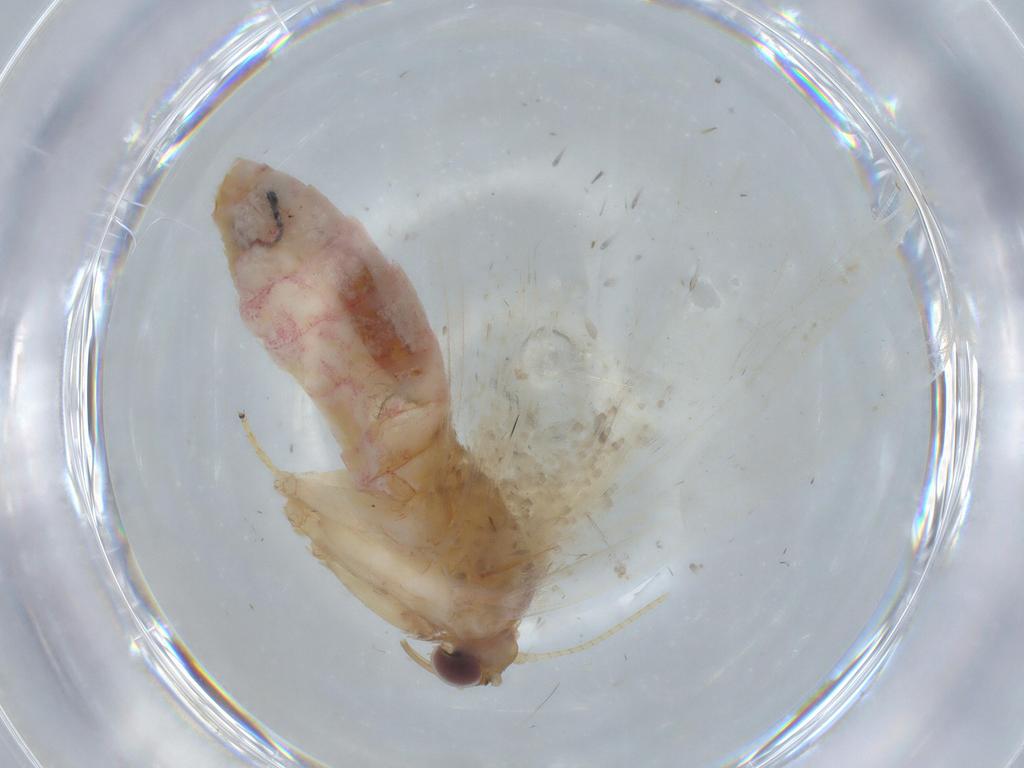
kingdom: Animalia
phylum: Arthropoda
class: Insecta
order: Lepidoptera
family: Geometridae
